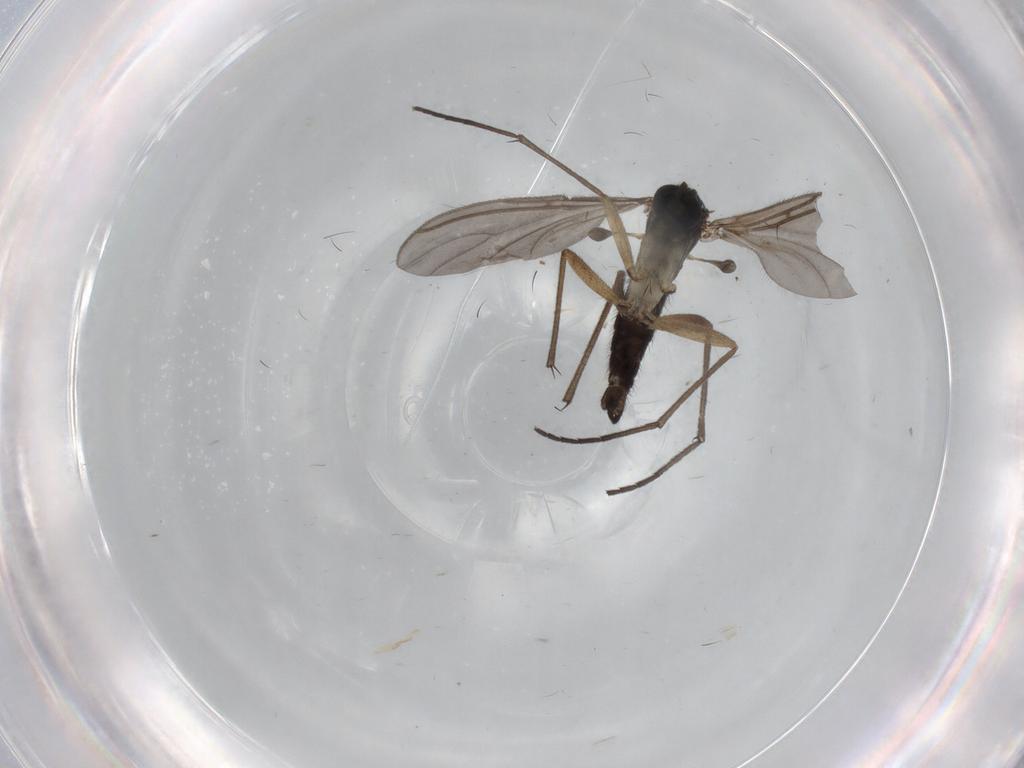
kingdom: Animalia
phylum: Arthropoda
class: Insecta
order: Diptera
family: Sciaridae
